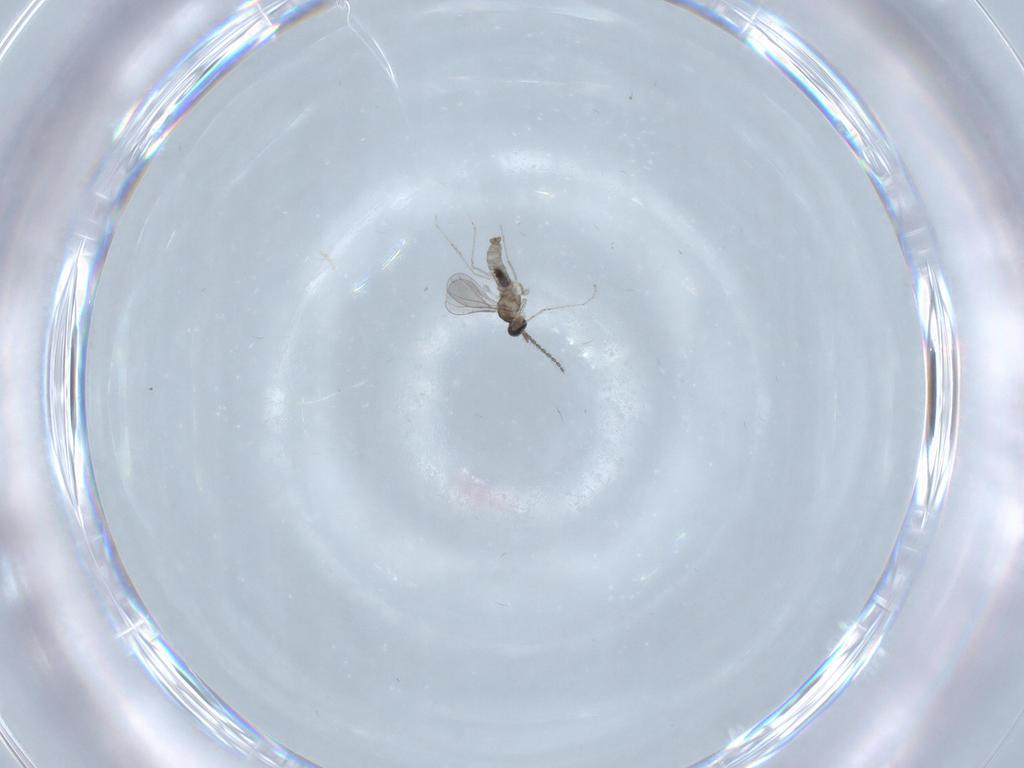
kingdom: Animalia
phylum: Arthropoda
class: Insecta
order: Diptera
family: Cecidomyiidae
